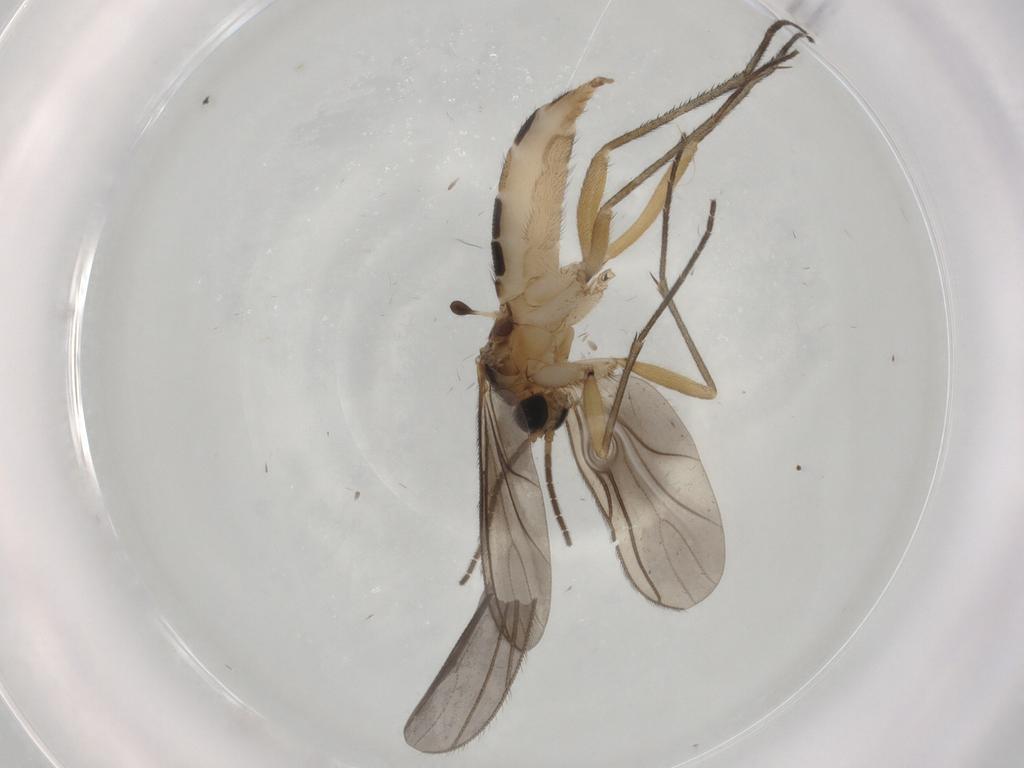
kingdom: Animalia
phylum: Arthropoda
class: Insecta
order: Diptera
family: Sciaridae
